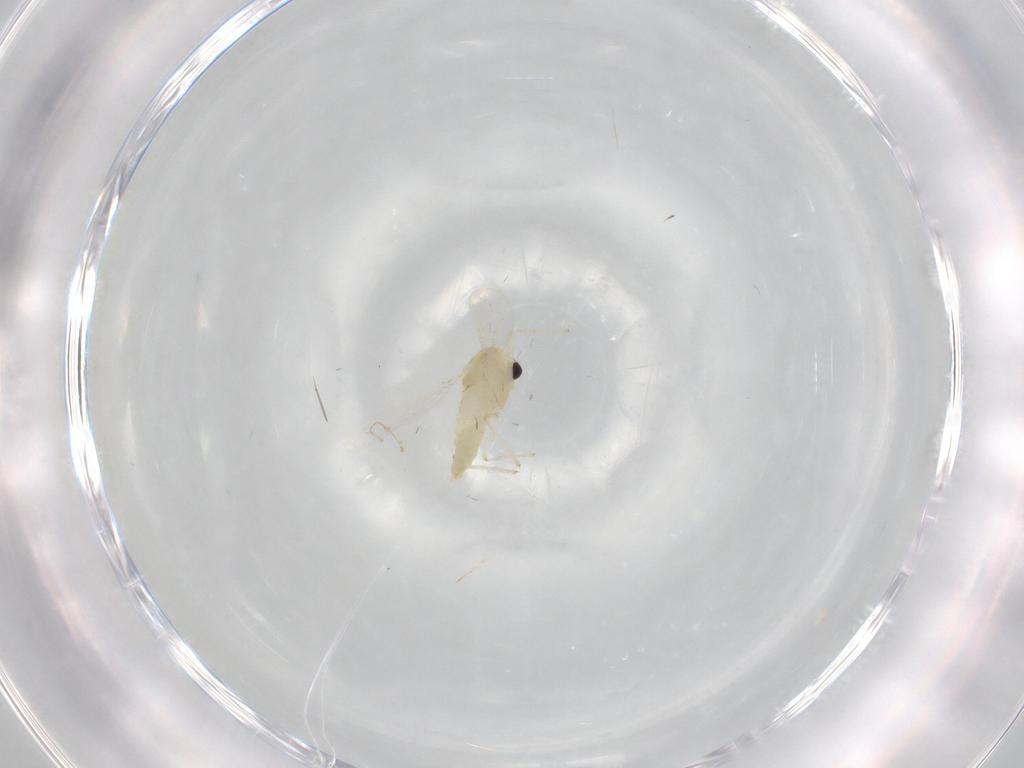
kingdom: Animalia
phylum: Arthropoda
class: Insecta
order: Diptera
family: Chironomidae
